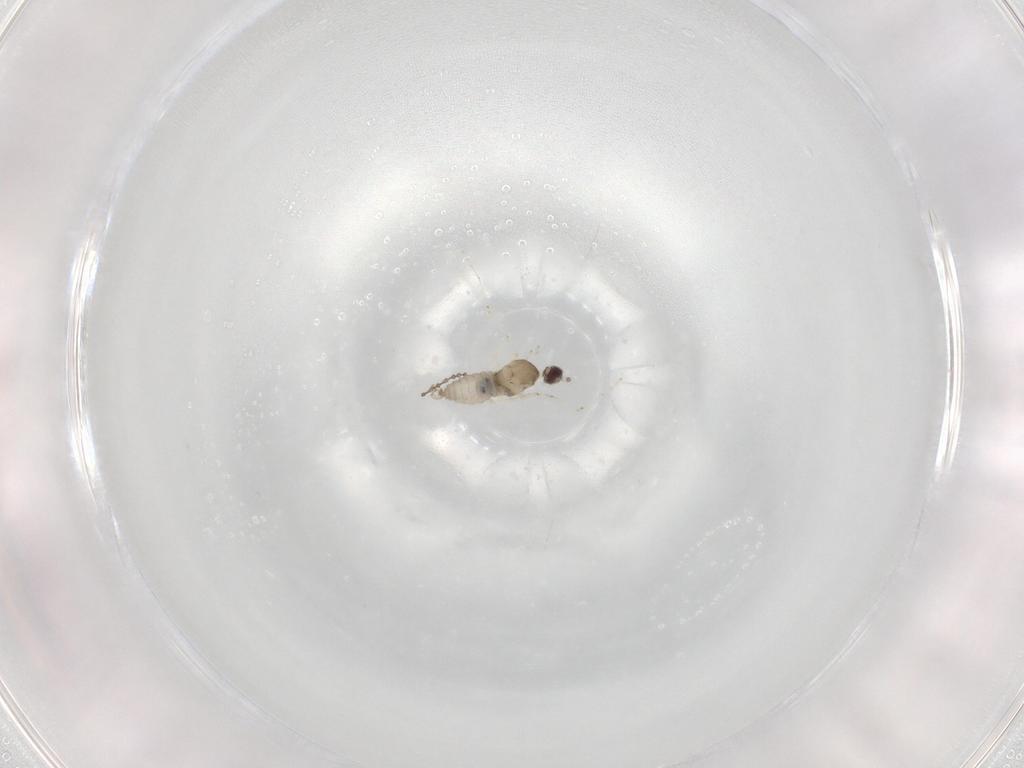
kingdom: Animalia
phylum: Arthropoda
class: Insecta
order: Diptera
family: Cecidomyiidae
